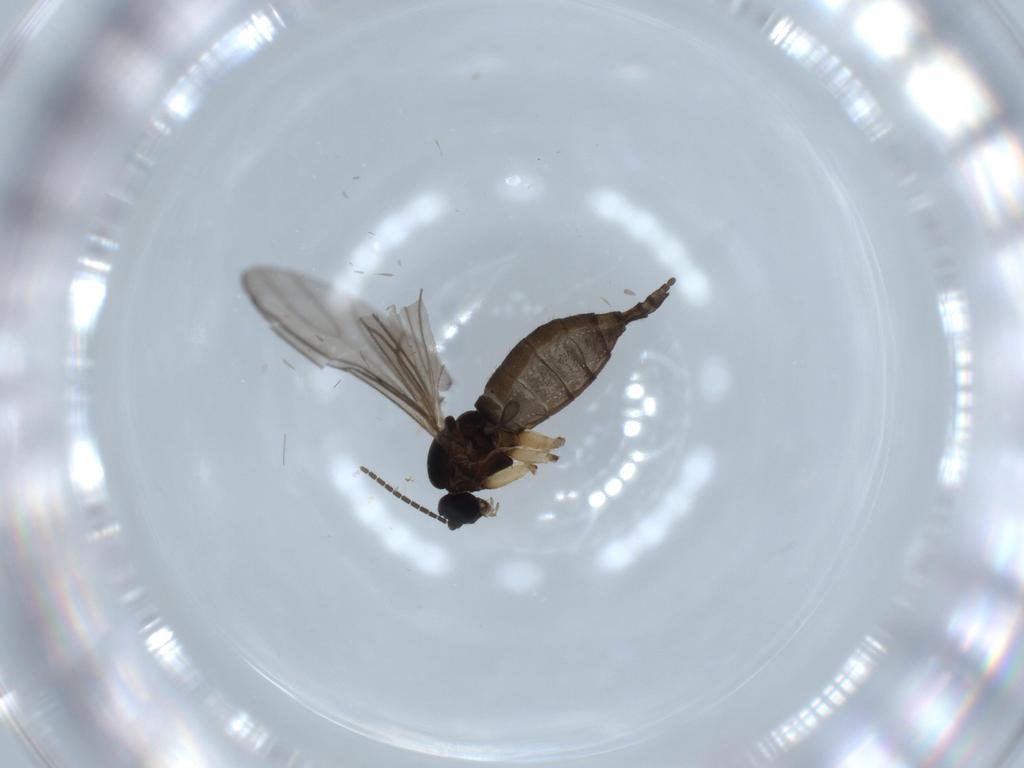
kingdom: Animalia
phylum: Arthropoda
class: Insecta
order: Diptera
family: Sciaridae
